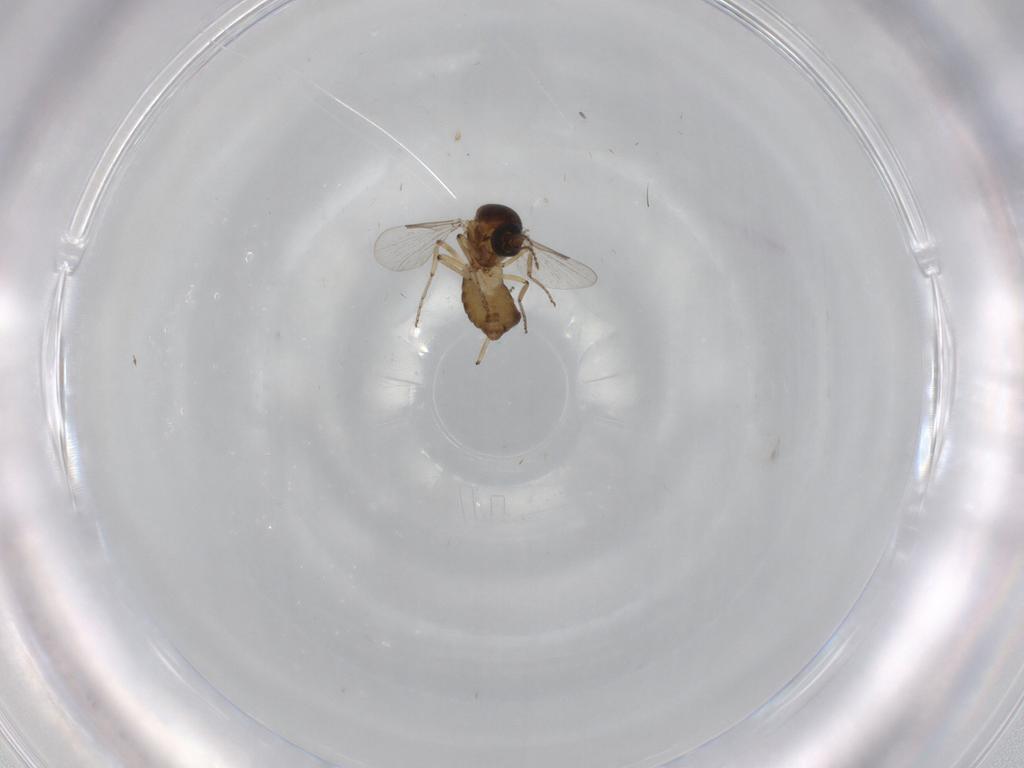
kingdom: Animalia
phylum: Arthropoda
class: Insecta
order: Diptera
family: Ceratopogonidae
